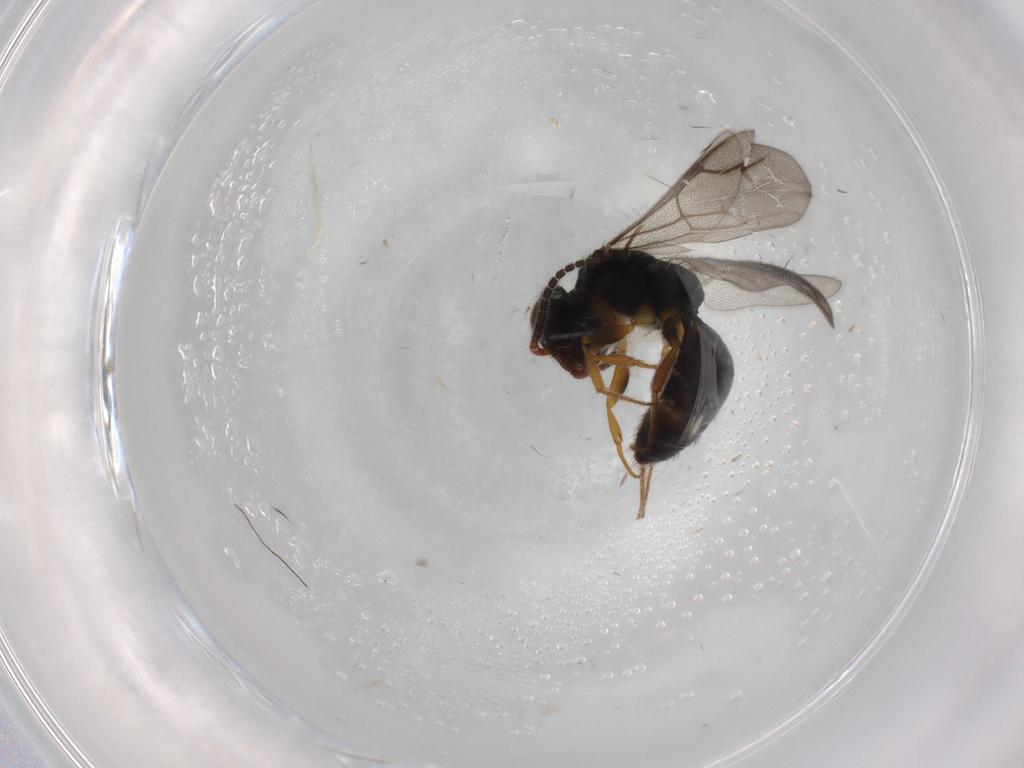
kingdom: Animalia
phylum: Arthropoda
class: Insecta
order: Hymenoptera
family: Bethylidae
